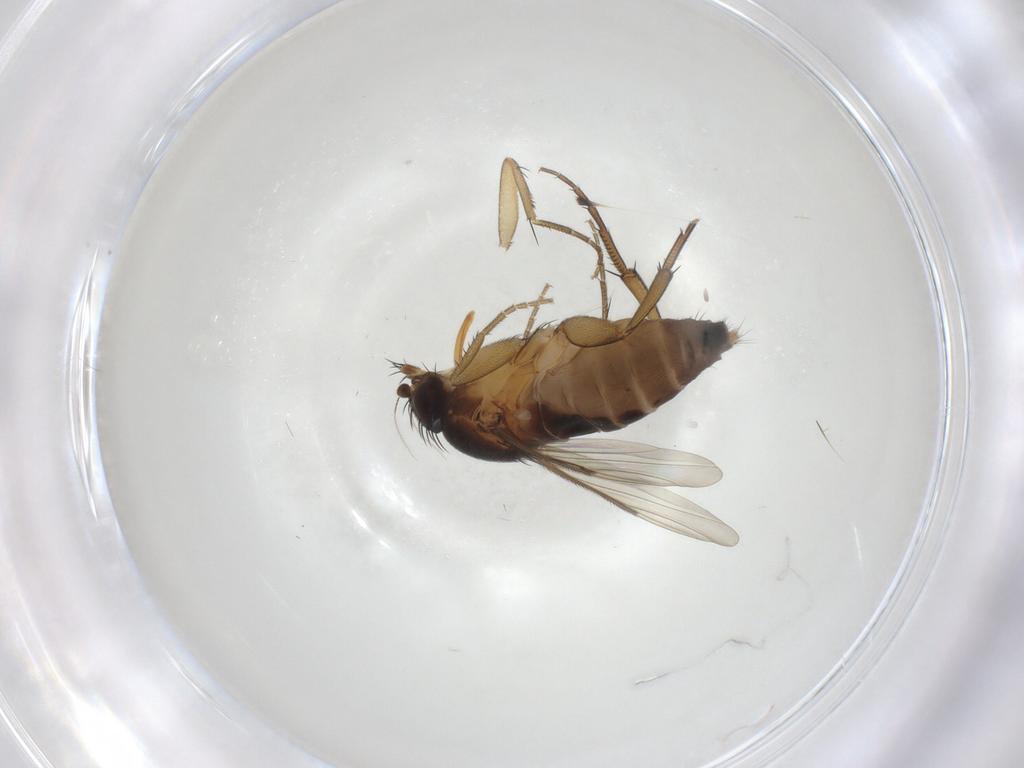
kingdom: Animalia
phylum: Arthropoda
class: Insecta
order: Diptera
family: Phoridae
